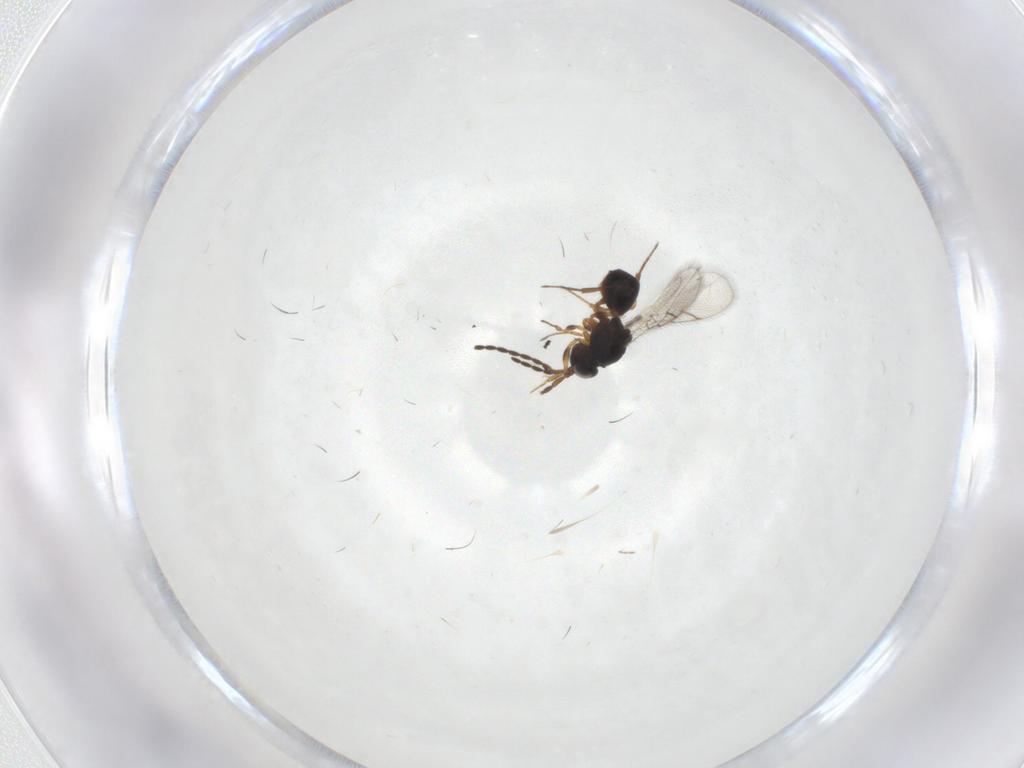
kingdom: Animalia
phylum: Arthropoda
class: Insecta
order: Hymenoptera
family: Figitidae
